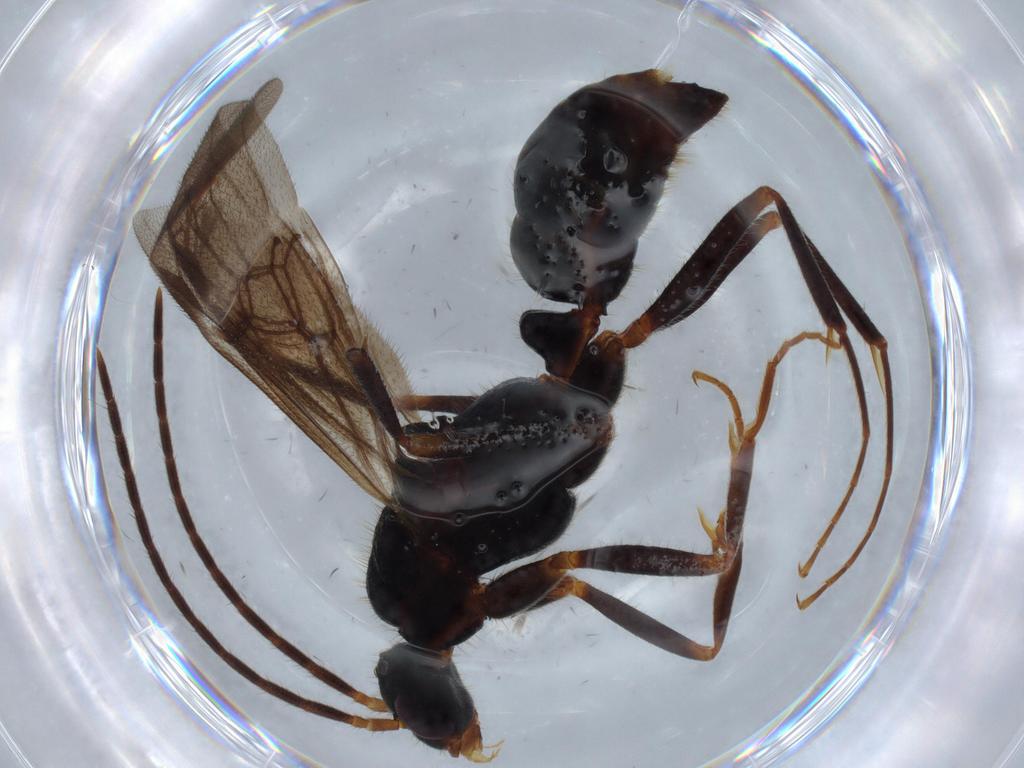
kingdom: Animalia
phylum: Arthropoda
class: Insecta
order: Hymenoptera
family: Formicidae
